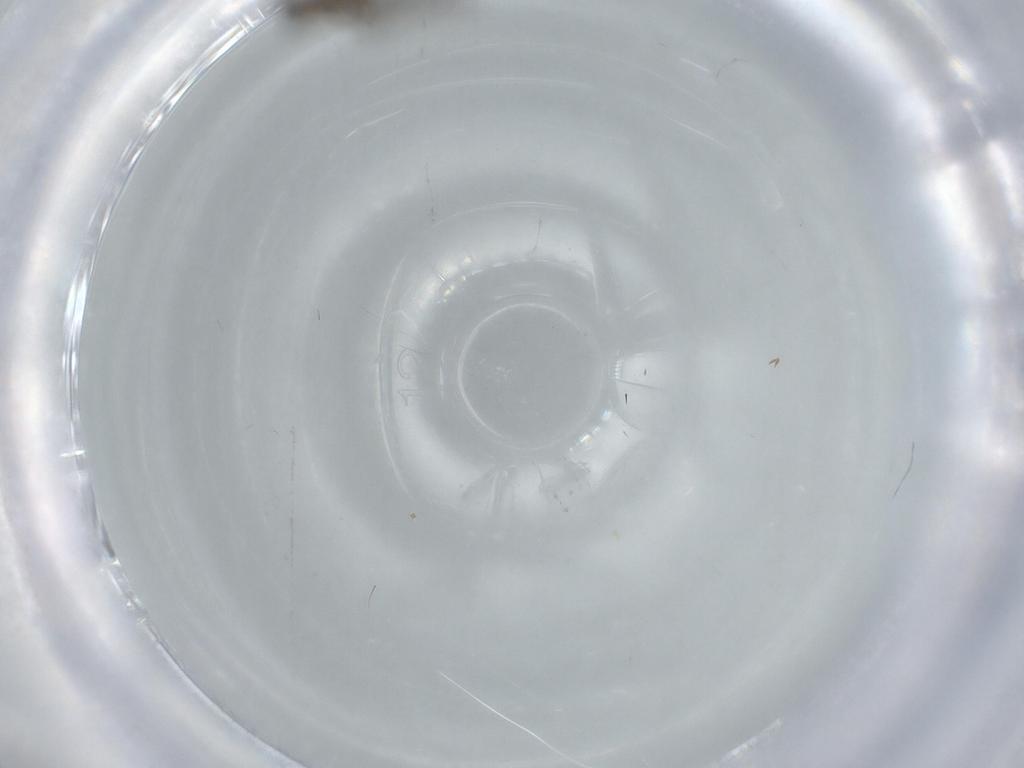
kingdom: Animalia
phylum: Arthropoda
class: Insecta
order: Diptera
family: Phoridae
